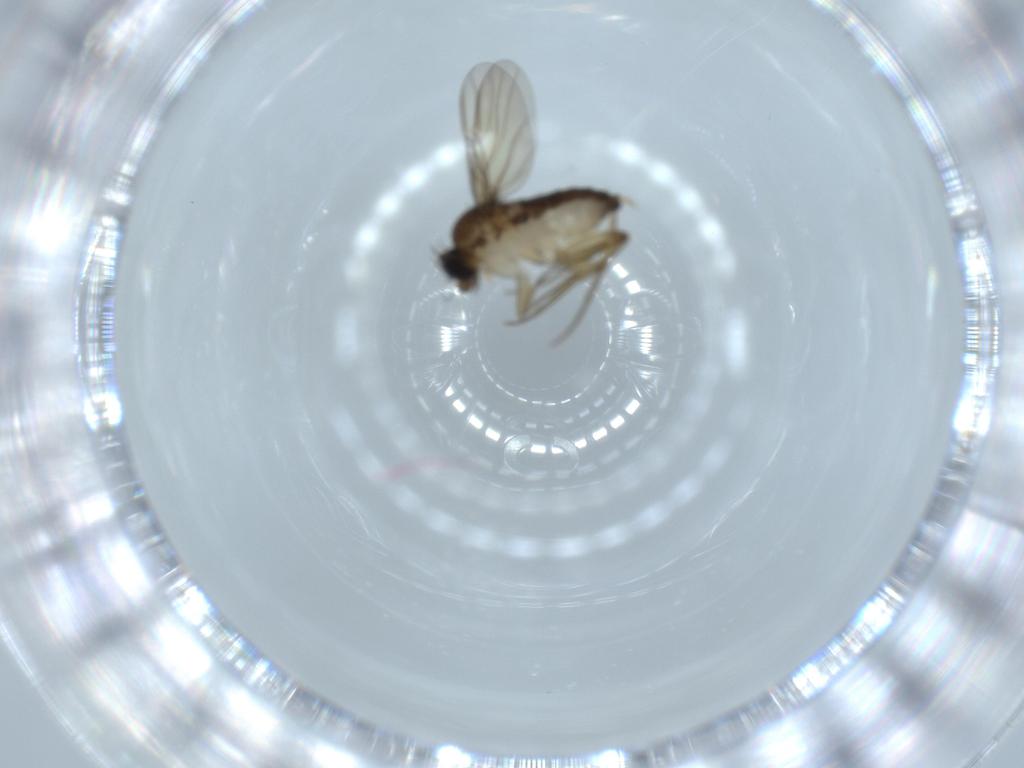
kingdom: Animalia
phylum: Arthropoda
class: Insecta
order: Diptera
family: Phoridae
